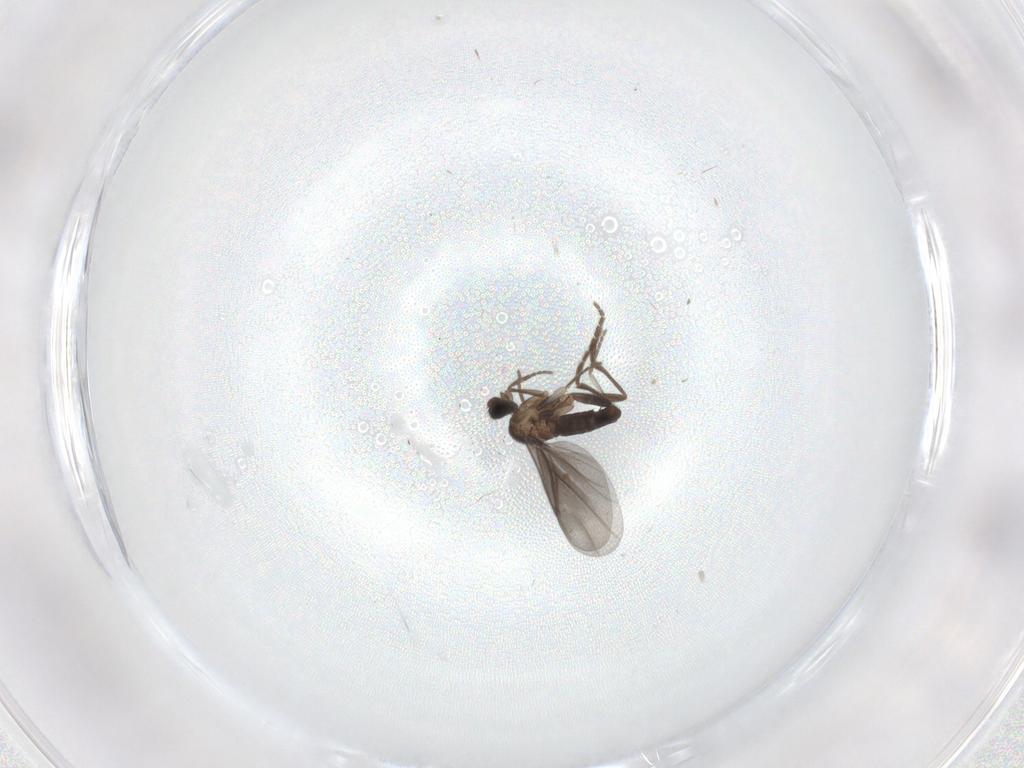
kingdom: Animalia
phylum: Arthropoda
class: Insecta
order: Diptera
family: Cecidomyiidae
